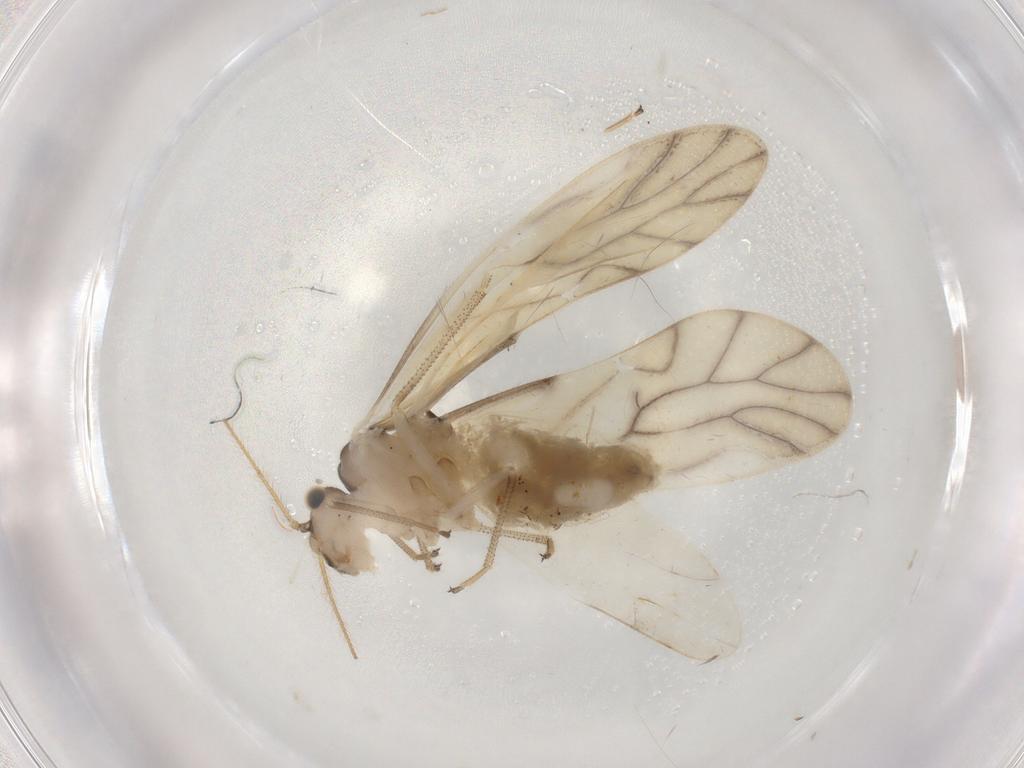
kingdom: Animalia
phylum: Arthropoda
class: Insecta
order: Psocodea
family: Caeciliusidae
